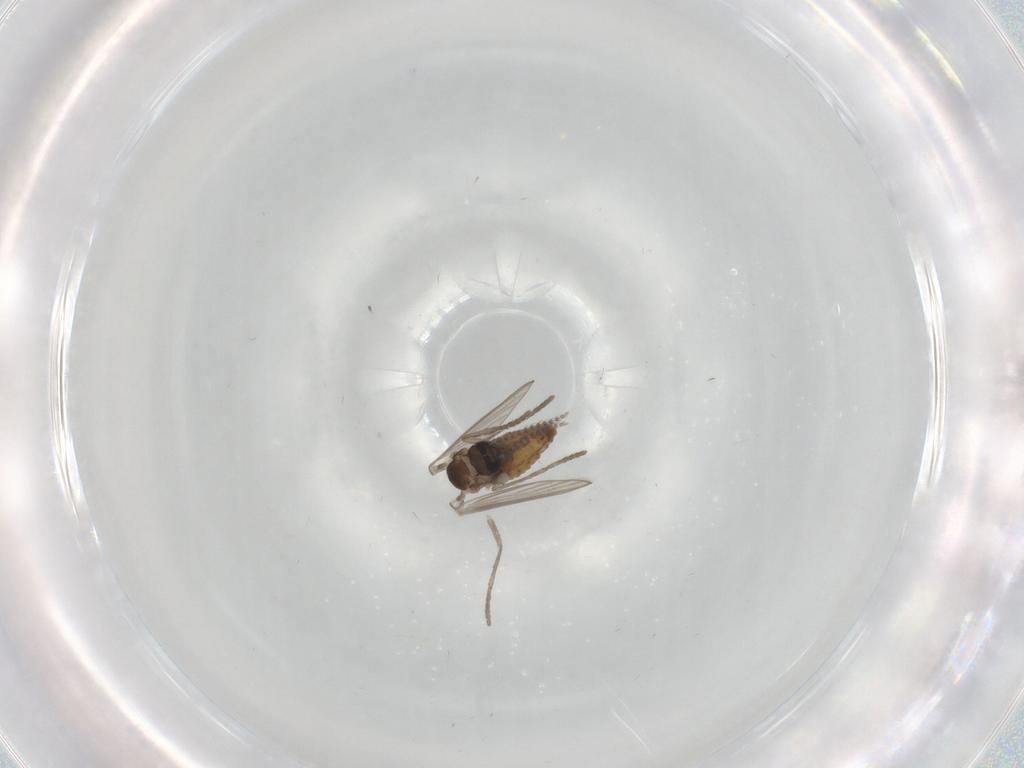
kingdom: Animalia
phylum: Arthropoda
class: Insecta
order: Diptera
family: Psychodidae
